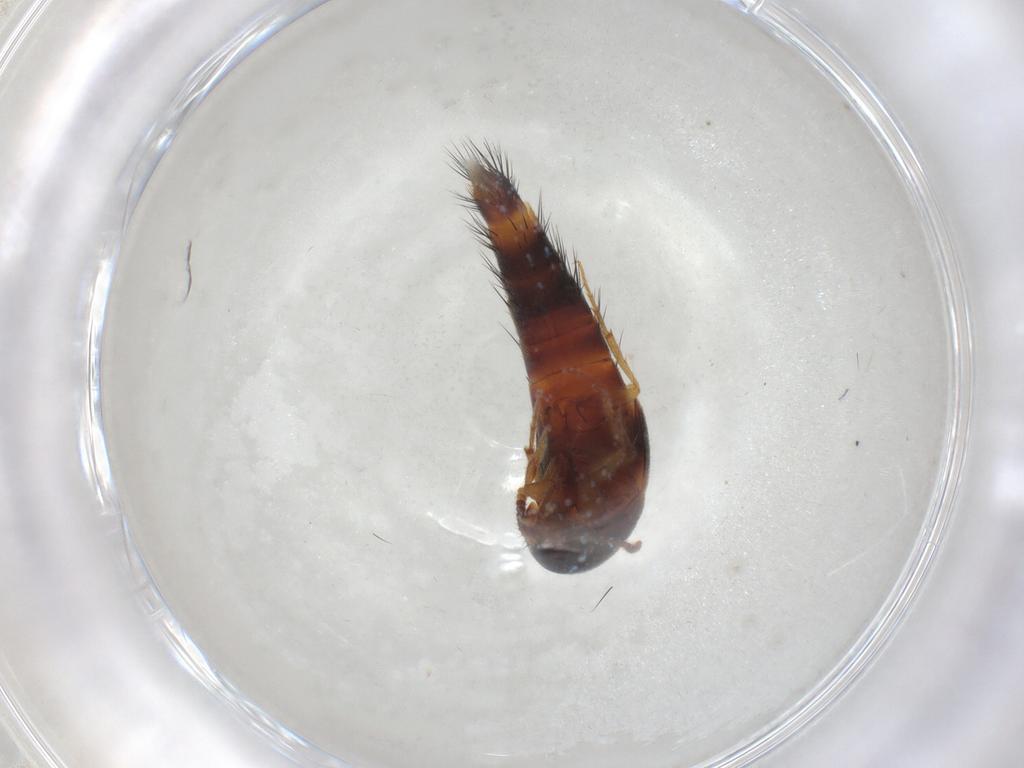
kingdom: Animalia
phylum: Arthropoda
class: Insecta
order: Coleoptera
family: Staphylinidae
